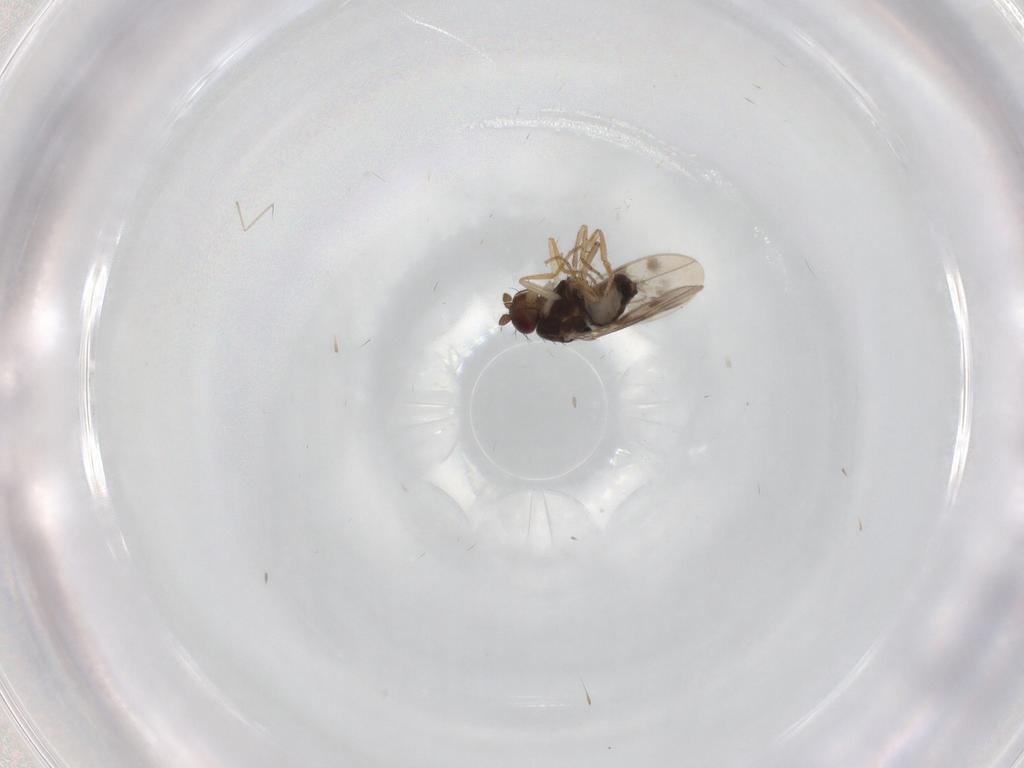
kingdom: Animalia
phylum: Arthropoda
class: Insecta
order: Diptera
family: Sphaeroceridae
